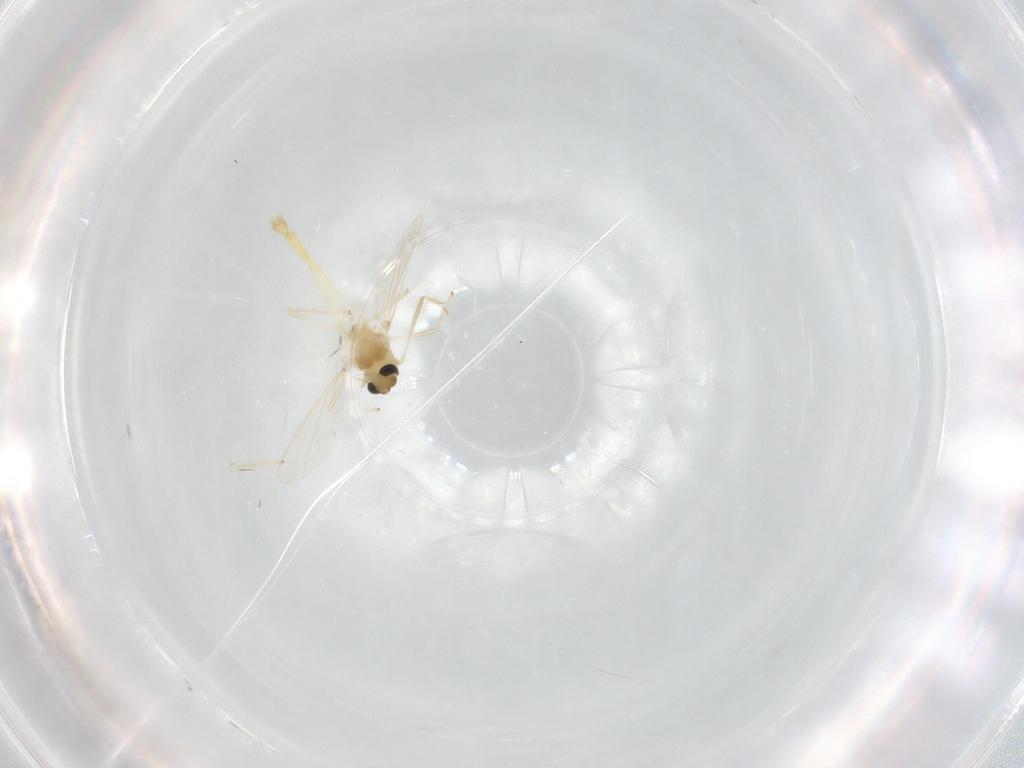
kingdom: Animalia
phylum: Arthropoda
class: Insecta
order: Diptera
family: Chironomidae
